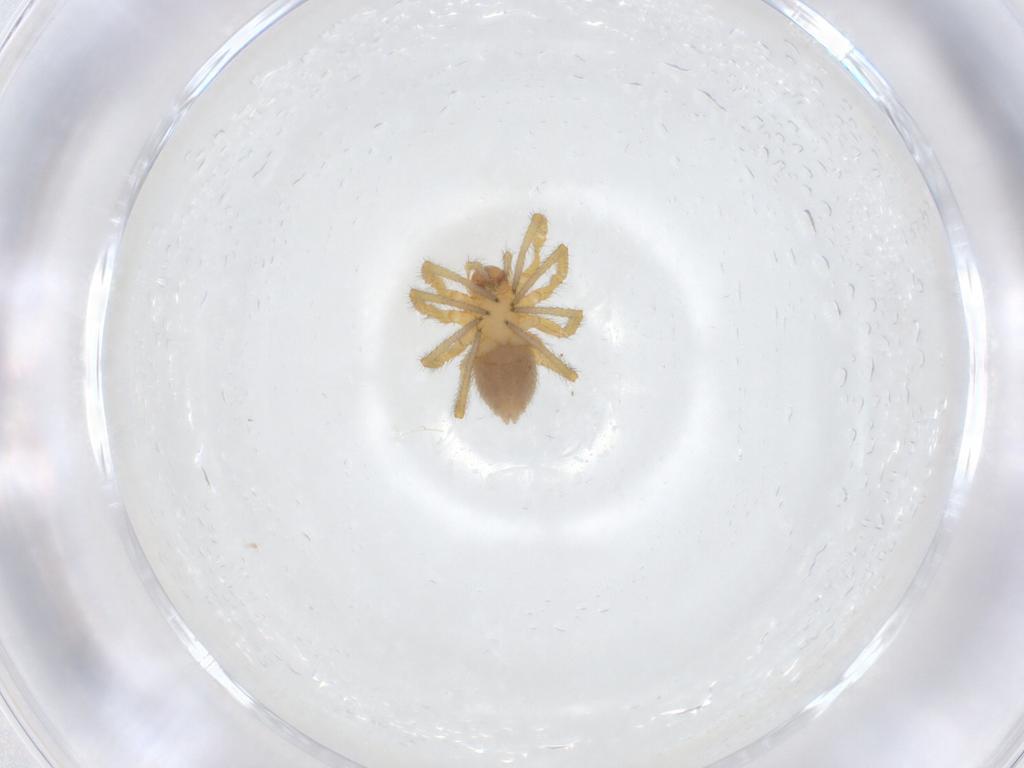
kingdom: Animalia
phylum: Arthropoda
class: Arachnida
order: Araneae
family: Linyphiidae
